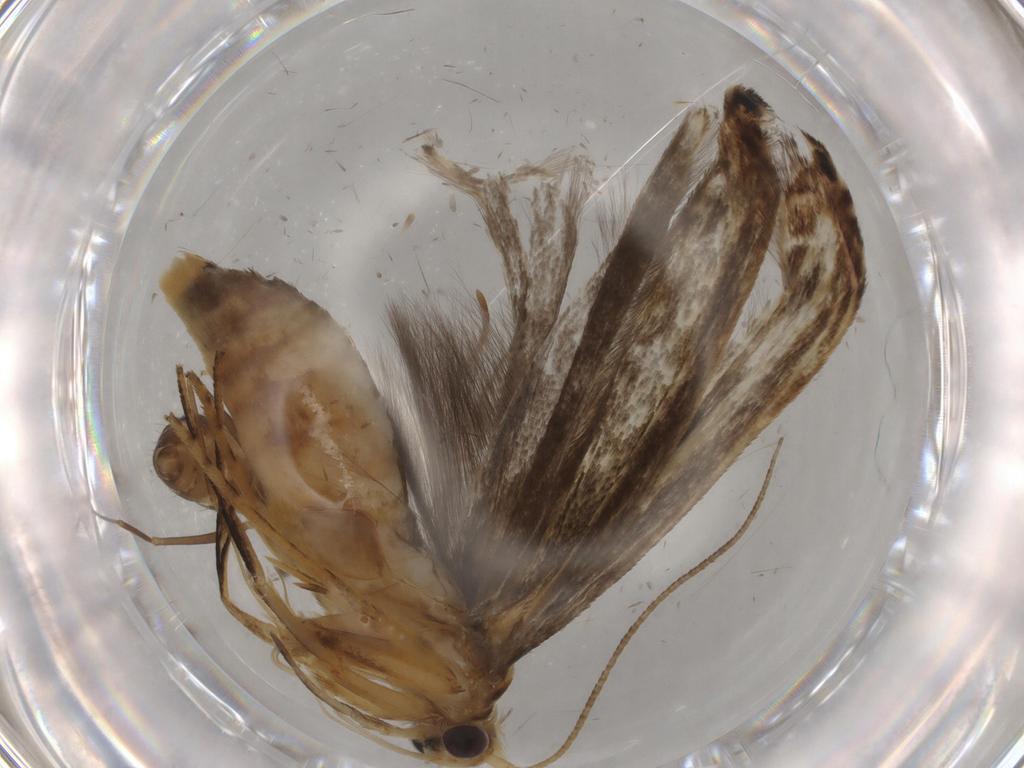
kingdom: Animalia
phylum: Arthropoda
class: Insecta
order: Lepidoptera
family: Gelechiidae
